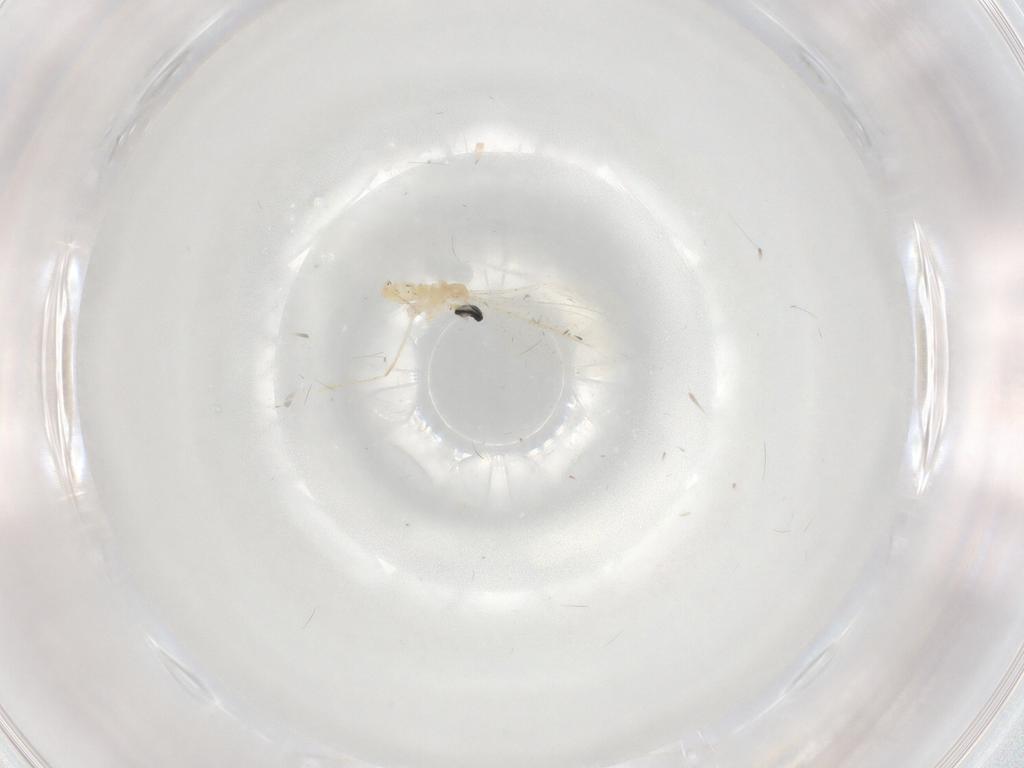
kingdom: Animalia
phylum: Arthropoda
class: Insecta
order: Diptera
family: Cecidomyiidae
